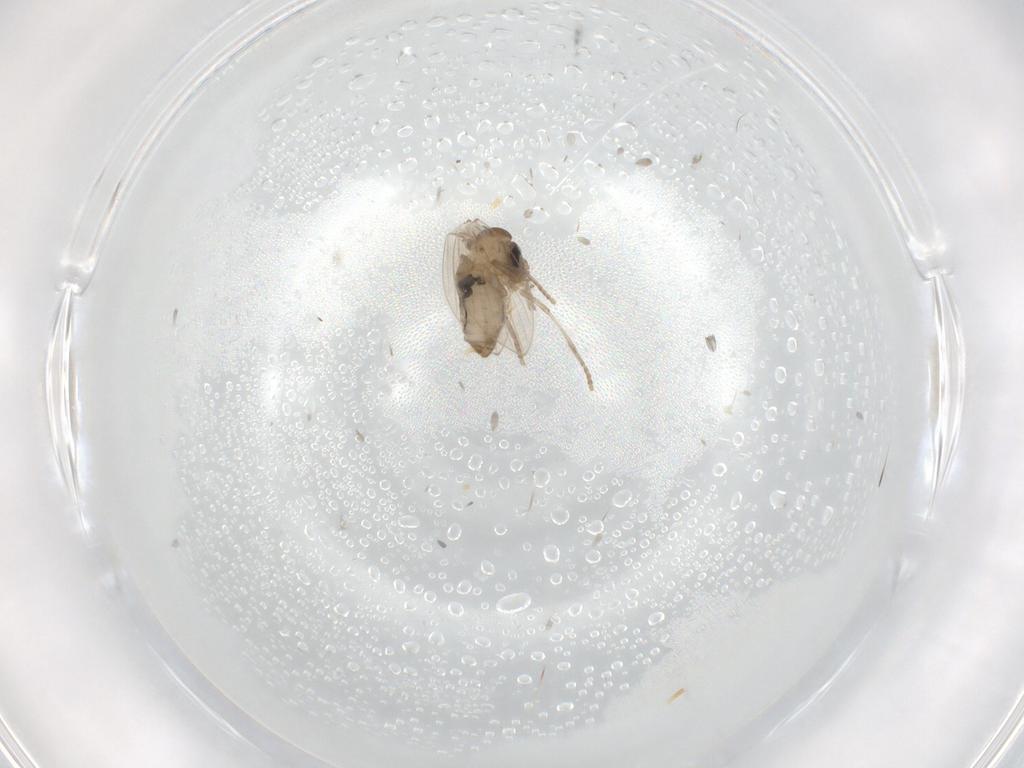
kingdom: Animalia
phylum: Arthropoda
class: Insecta
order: Diptera
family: Psychodidae
